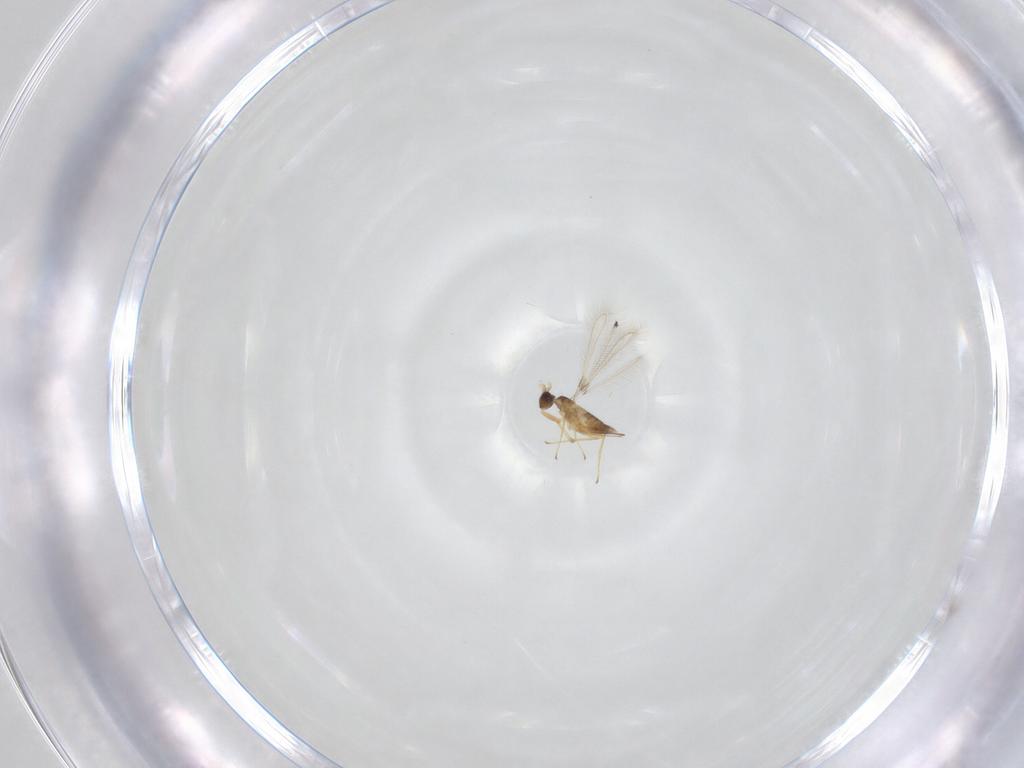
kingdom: Animalia
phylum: Arthropoda
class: Insecta
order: Hymenoptera
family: Mymaridae
